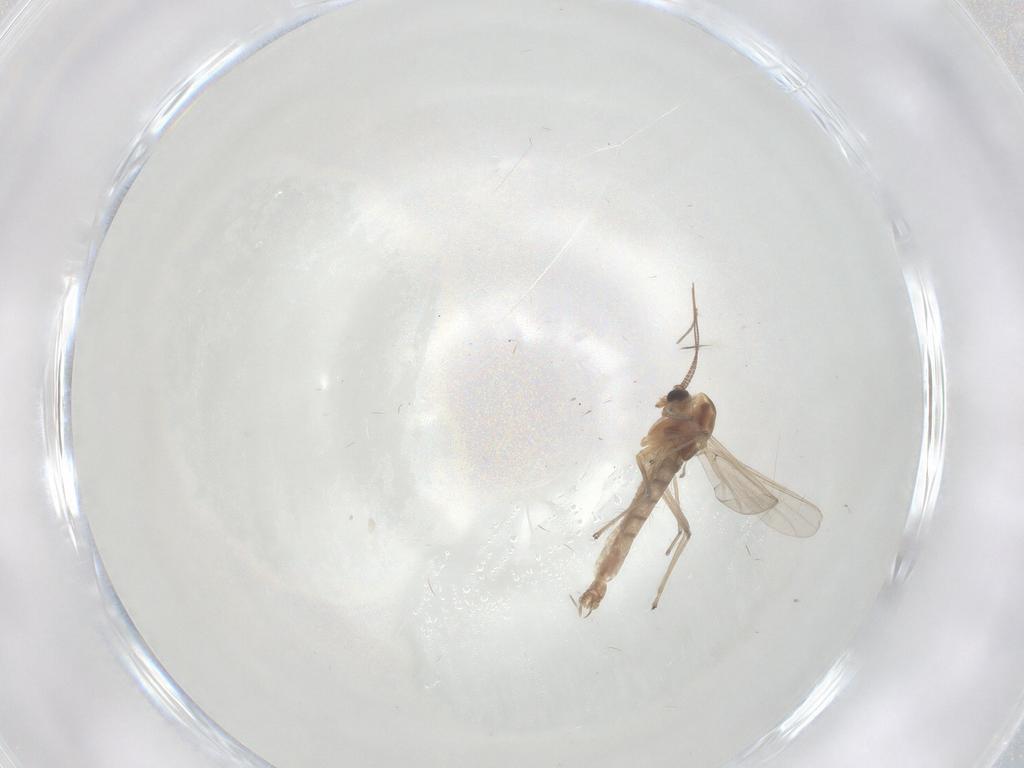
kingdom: Animalia
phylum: Arthropoda
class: Insecta
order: Diptera
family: Chironomidae
